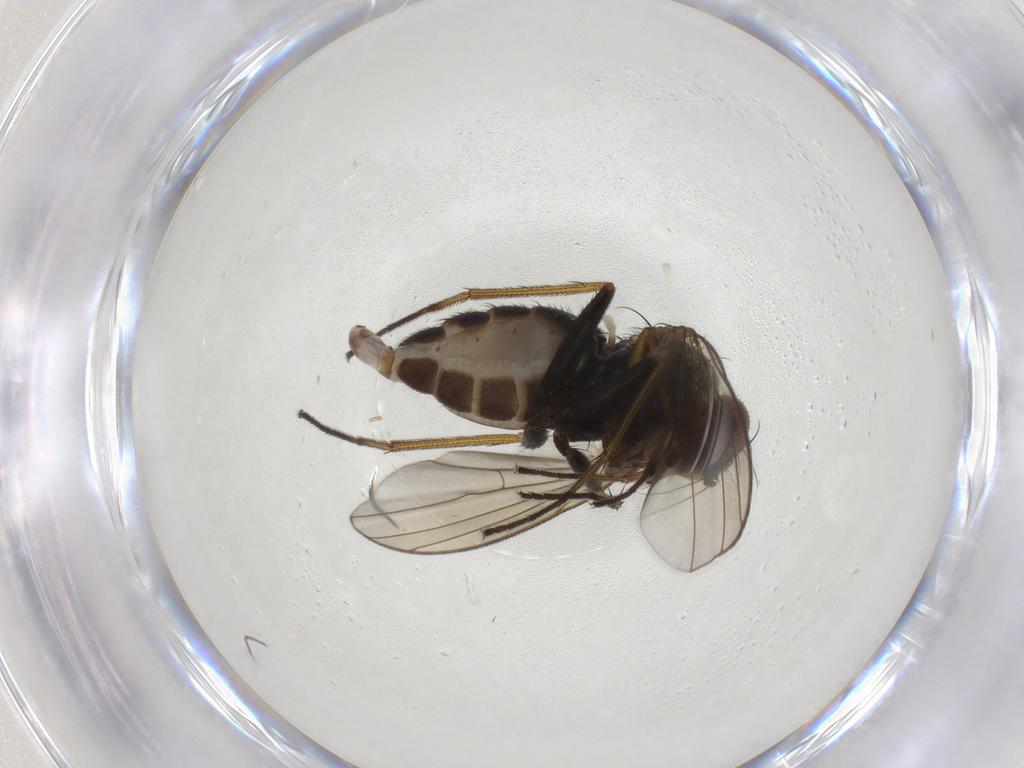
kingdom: Animalia
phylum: Arthropoda
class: Insecta
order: Diptera
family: Dolichopodidae
